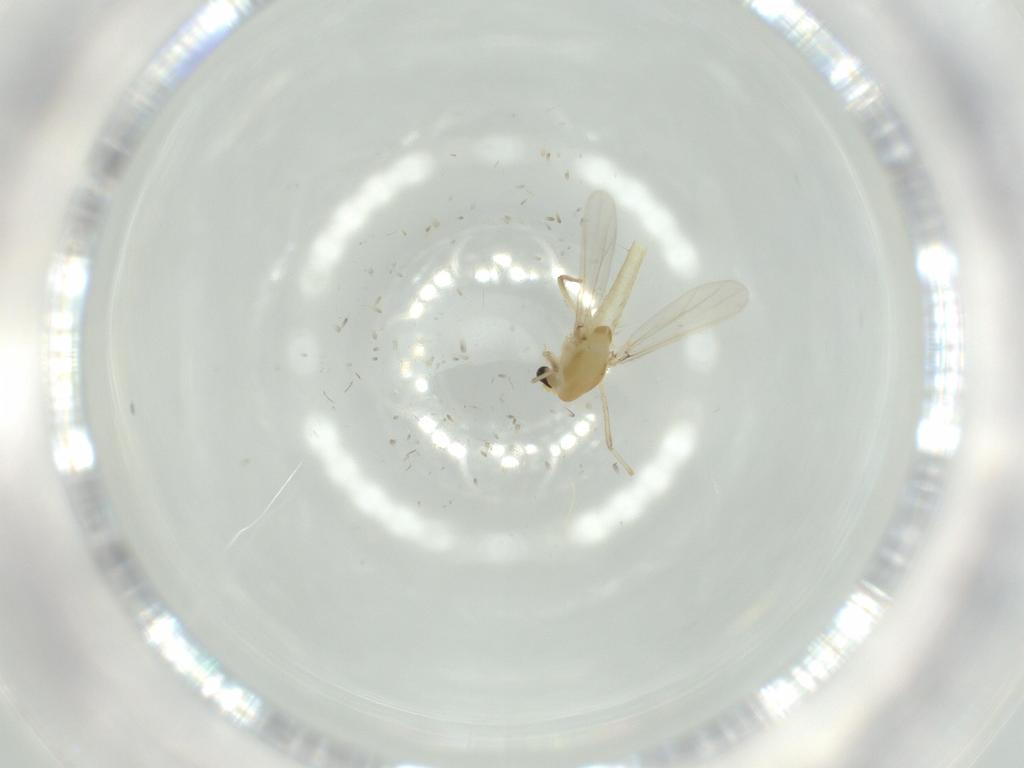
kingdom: Animalia
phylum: Arthropoda
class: Insecta
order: Diptera
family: Chironomidae
